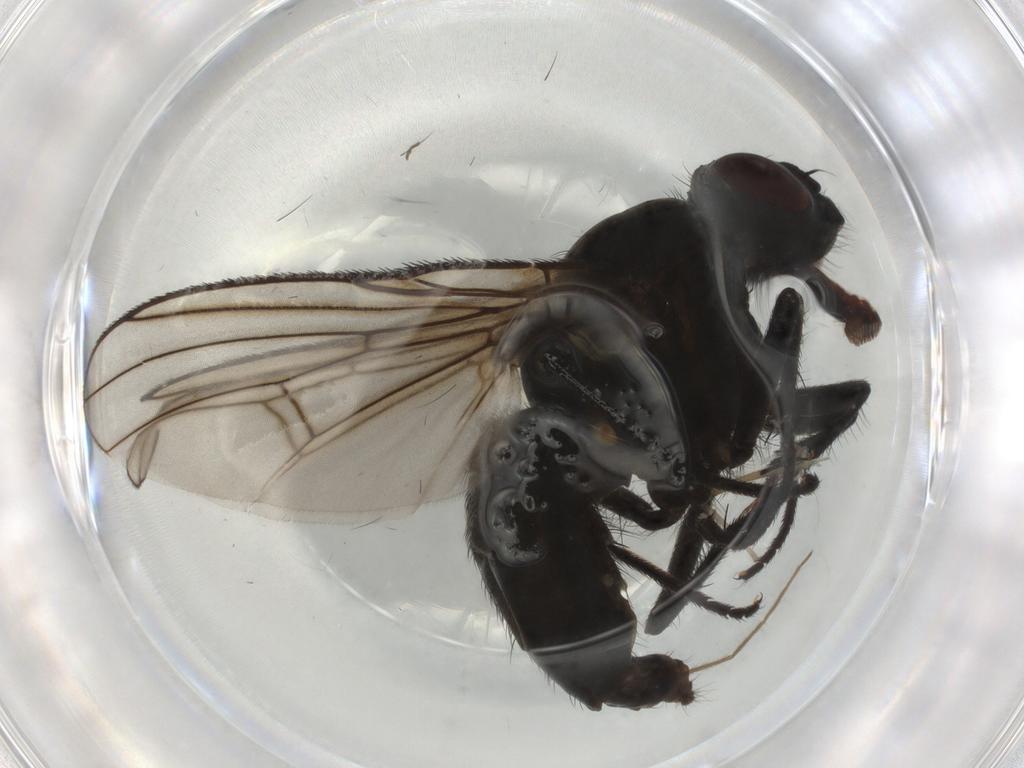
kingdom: Animalia
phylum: Arthropoda
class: Insecta
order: Diptera
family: Muscidae
